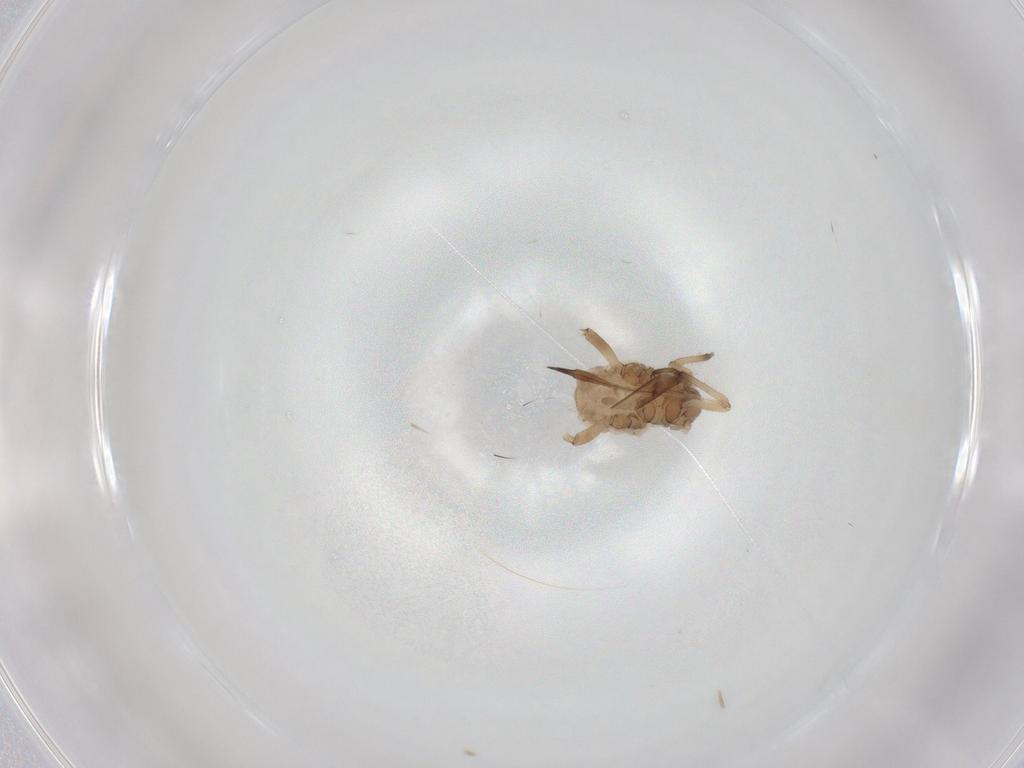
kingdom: Animalia
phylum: Arthropoda
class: Insecta
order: Hemiptera
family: Aphididae
